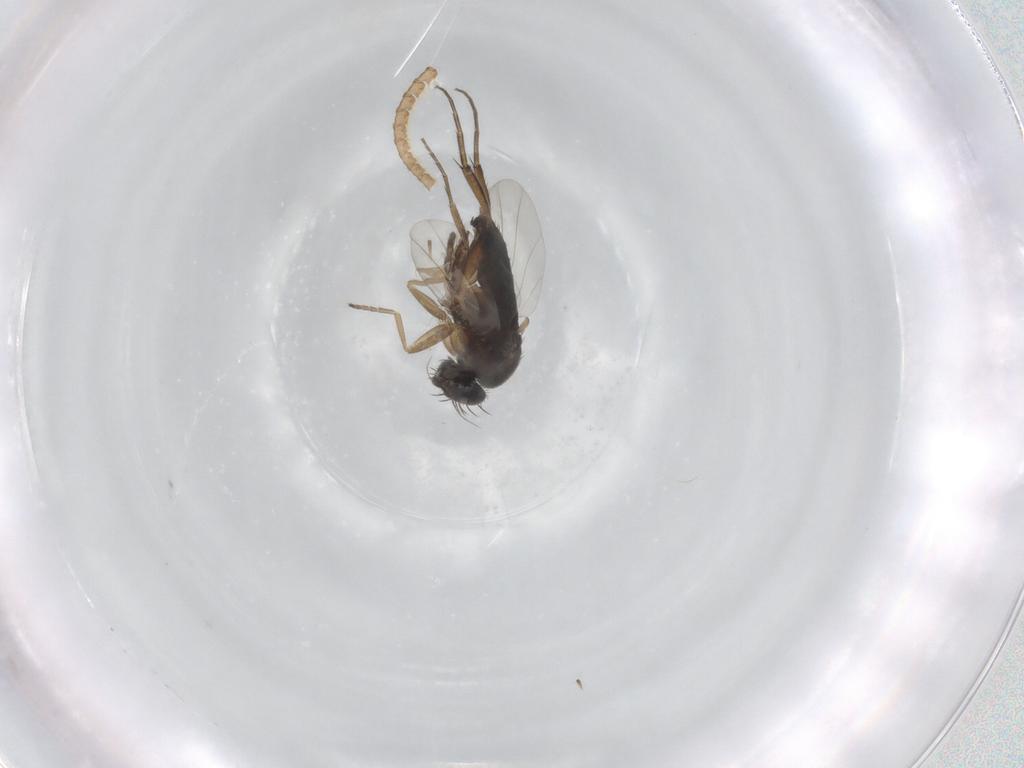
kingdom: Animalia
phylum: Arthropoda
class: Insecta
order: Diptera
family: Phoridae
